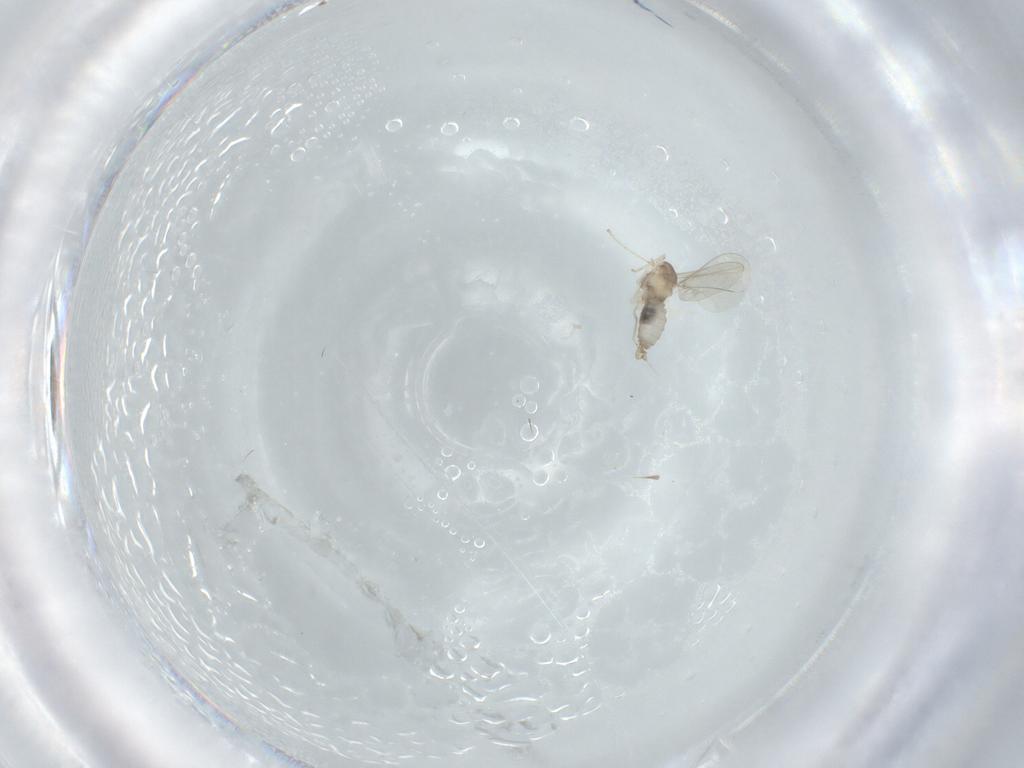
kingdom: Animalia
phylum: Arthropoda
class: Insecta
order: Diptera
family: Cecidomyiidae
